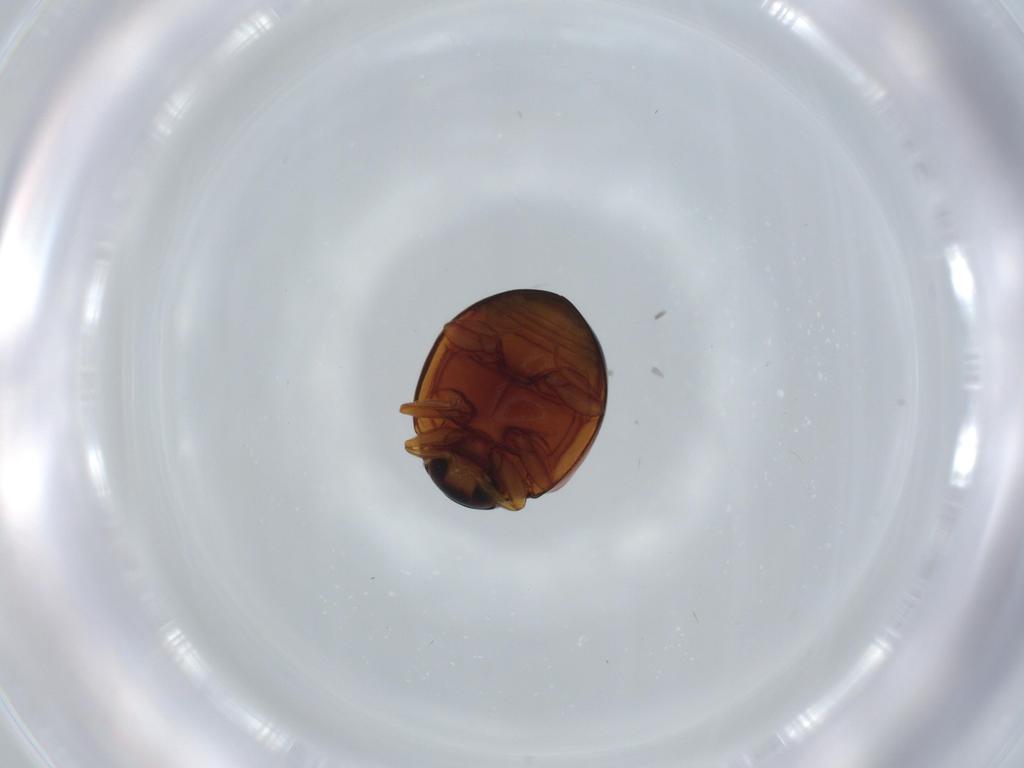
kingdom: Animalia
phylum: Arthropoda
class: Insecta
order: Coleoptera
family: Coccinellidae
